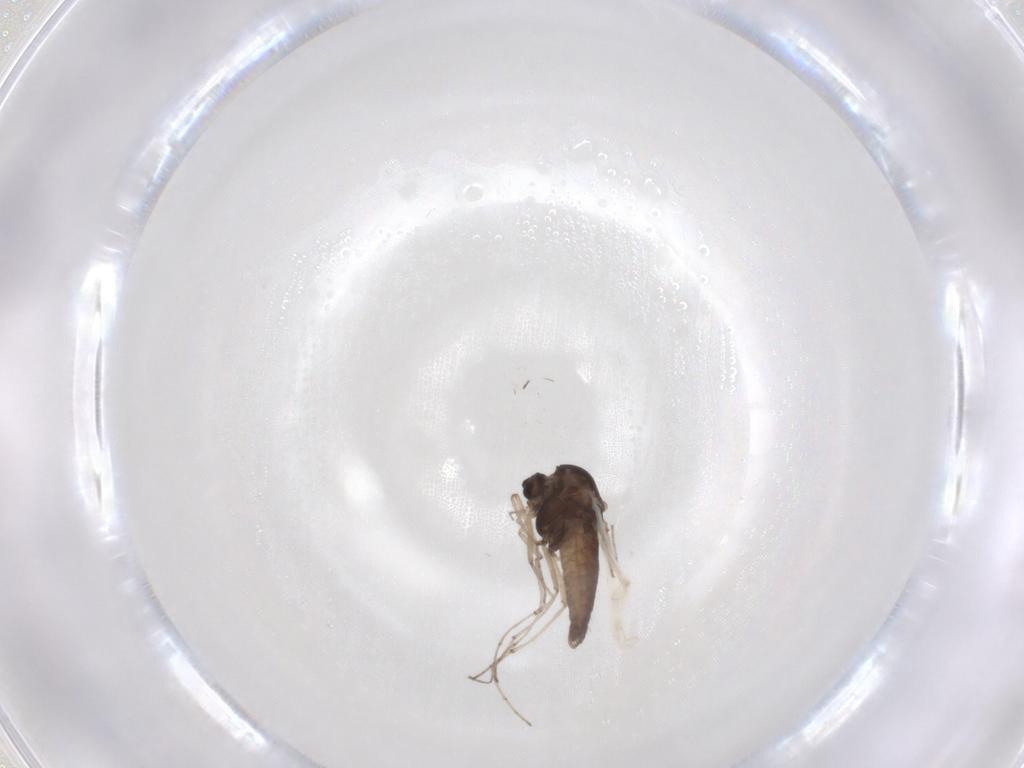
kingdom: Animalia
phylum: Arthropoda
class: Insecta
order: Diptera
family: Chironomidae
